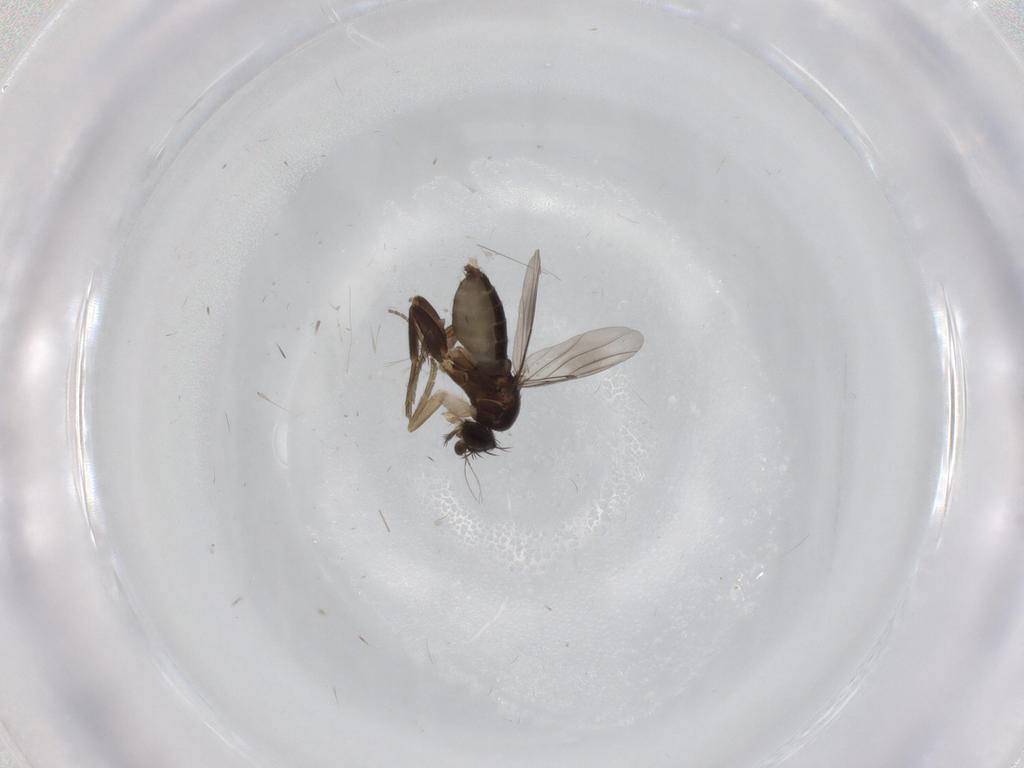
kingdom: Animalia
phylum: Arthropoda
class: Insecta
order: Diptera
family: Phoridae
